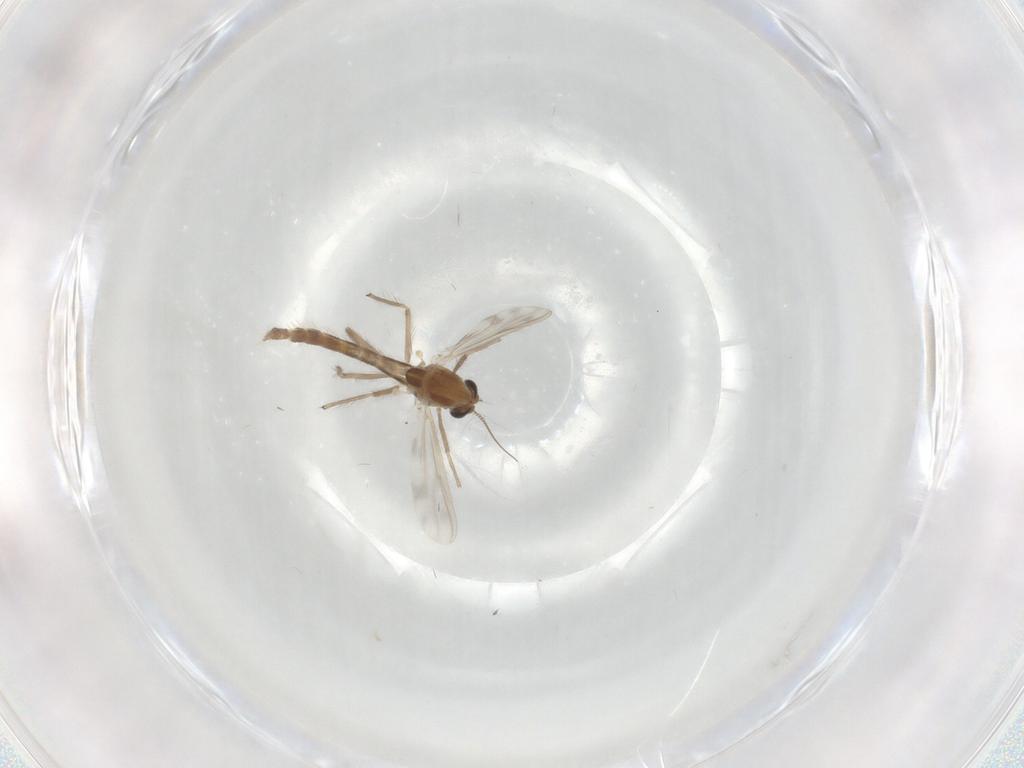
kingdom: Animalia
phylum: Arthropoda
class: Insecta
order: Diptera
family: Chironomidae
